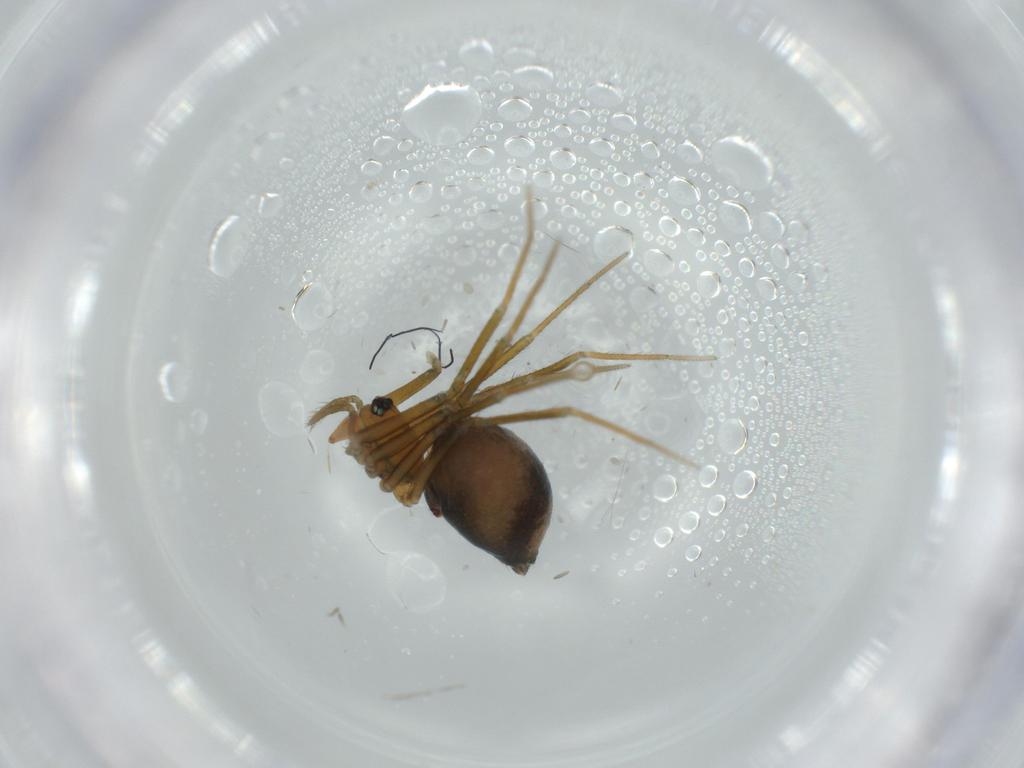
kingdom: Animalia
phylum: Arthropoda
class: Arachnida
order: Araneae
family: Linyphiidae
